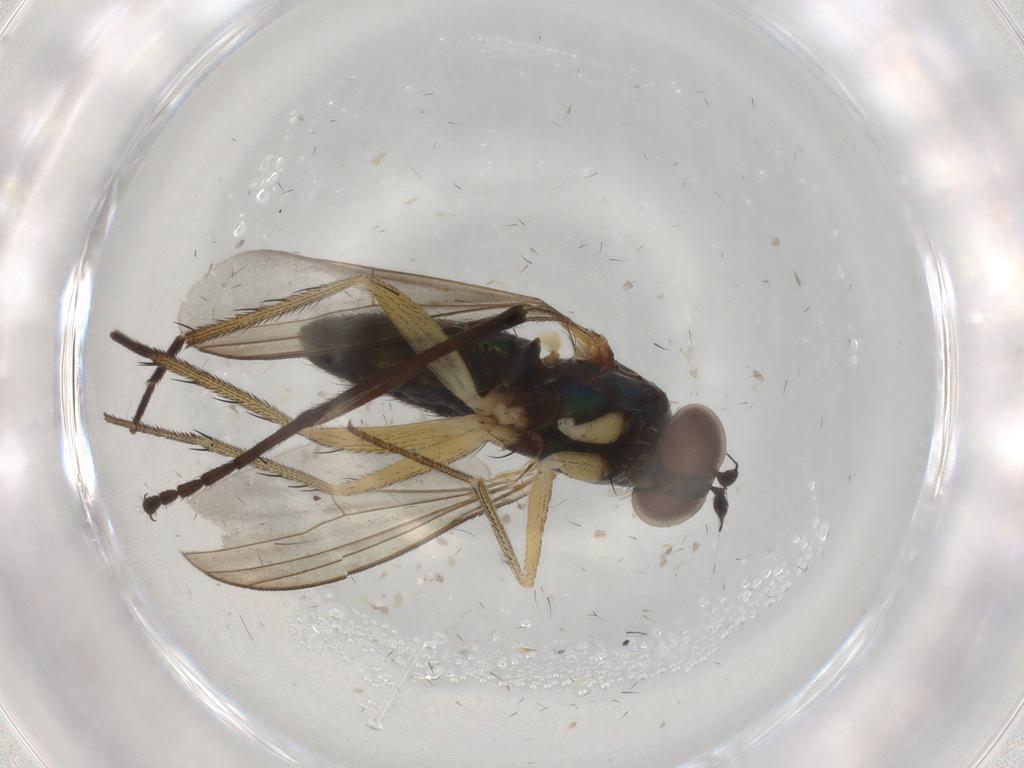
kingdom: Animalia
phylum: Arthropoda
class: Insecta
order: Diptera
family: Dolichopodidae
